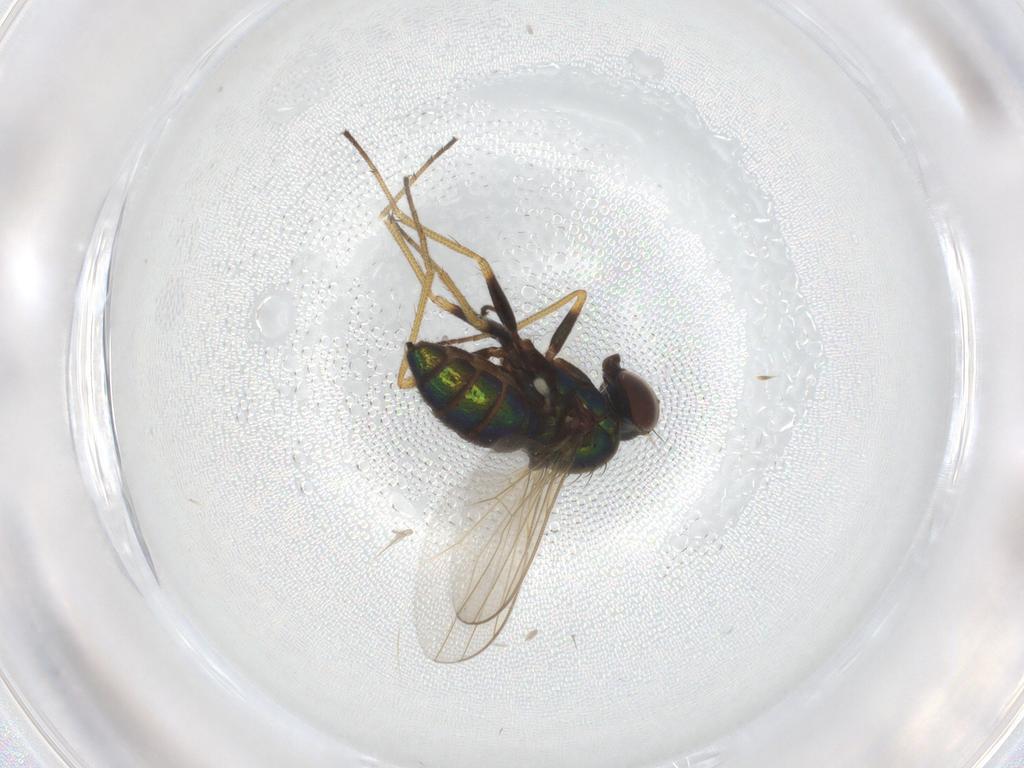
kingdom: Animalia
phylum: Arthropoda
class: Insecta
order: Diptera
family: Dolichopodidae
